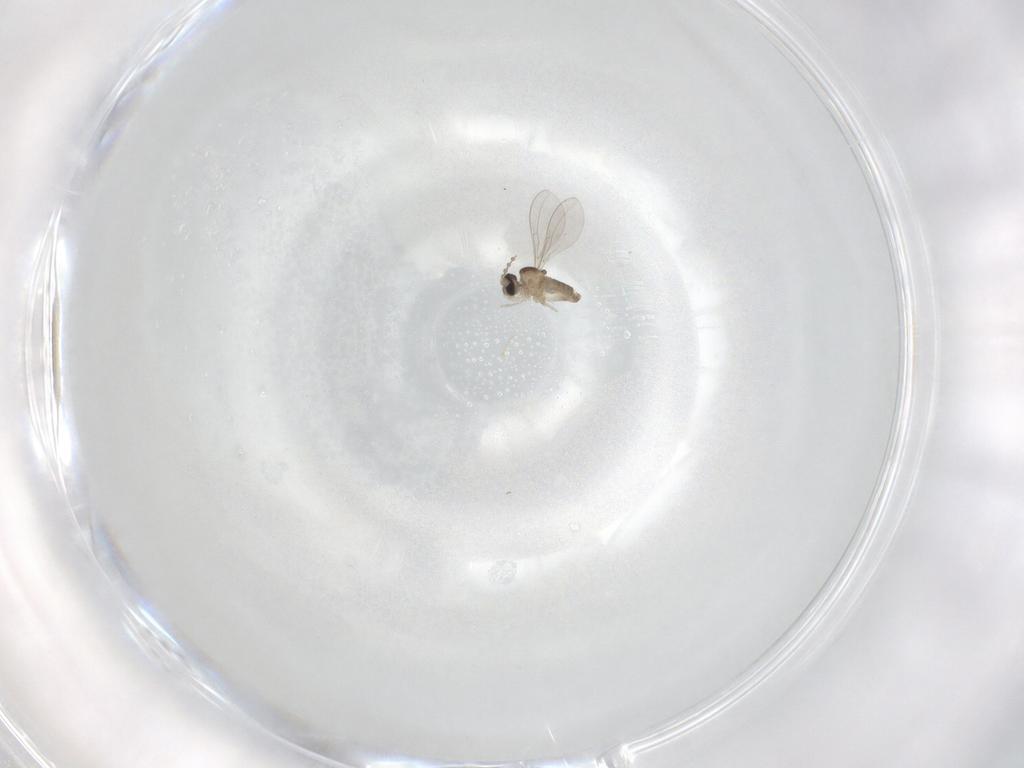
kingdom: Animalia
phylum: Arthropoda
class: Insecta
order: Diptera
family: Cecidomyiidae
